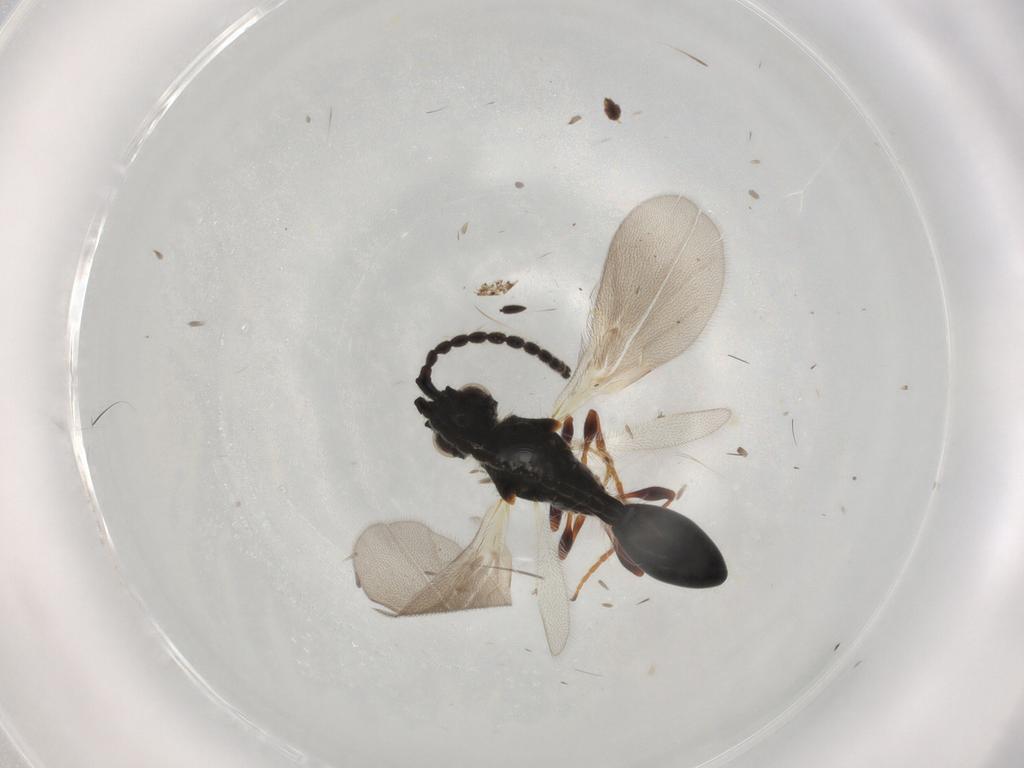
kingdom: Animalia
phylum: Arthropoda
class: Insecta
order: Hymenoptera
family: Diapriidae
